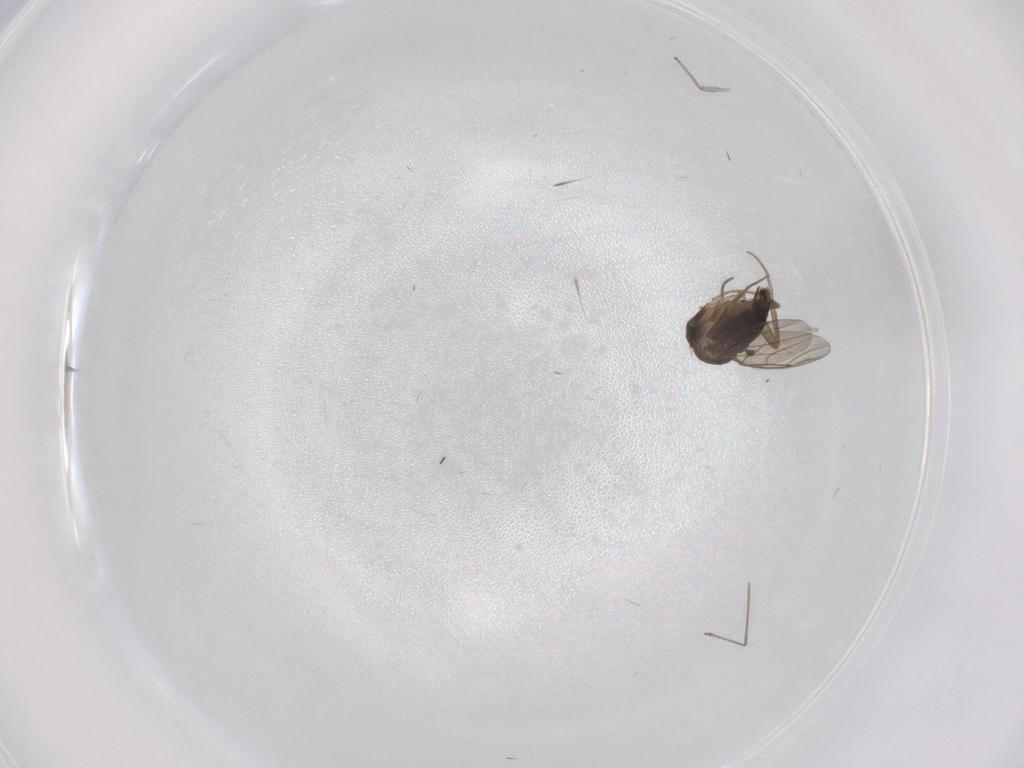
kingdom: Animalia
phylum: Arthropoda
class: Insecta
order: Diptera
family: Phoridae
